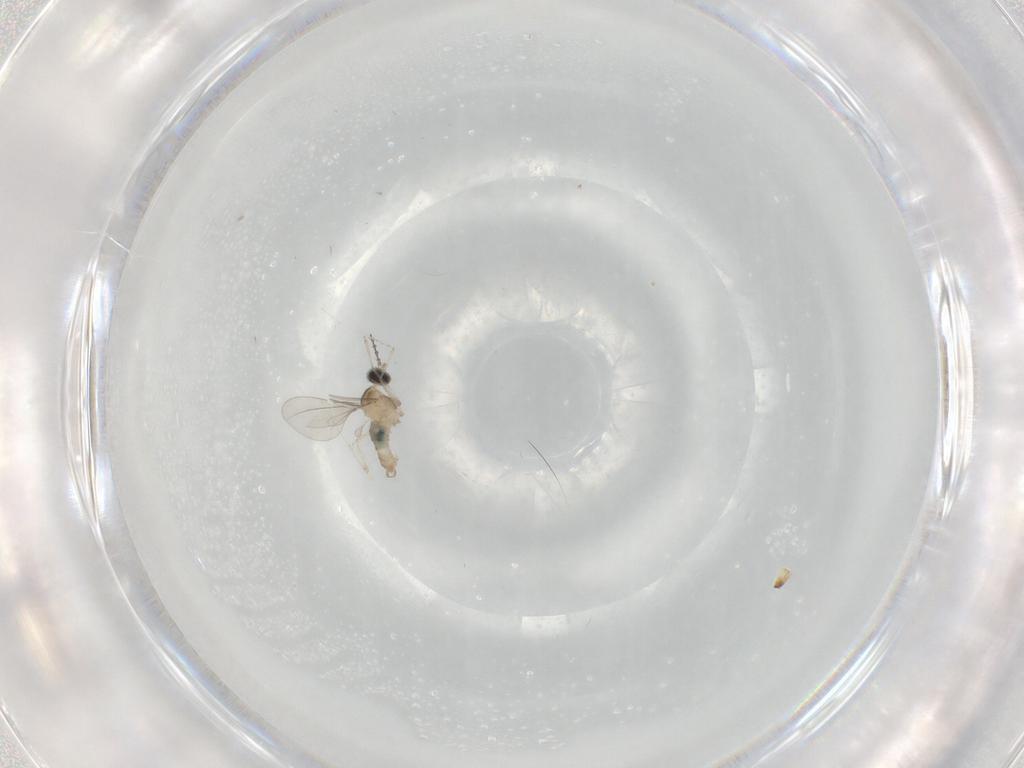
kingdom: Animalia
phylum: Arthropoda
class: Insecta
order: Diptera
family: Cecidomyiidae
